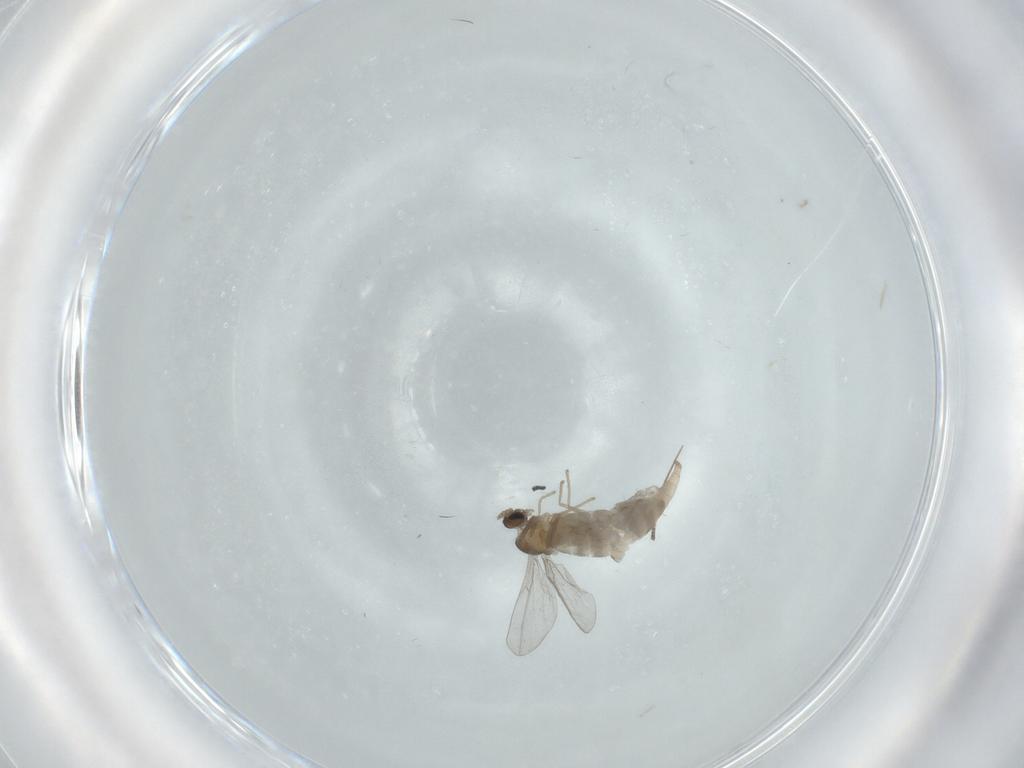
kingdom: Animalia
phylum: Arthropoda
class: Insecta
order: Diptera
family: Cecidomyiidae
